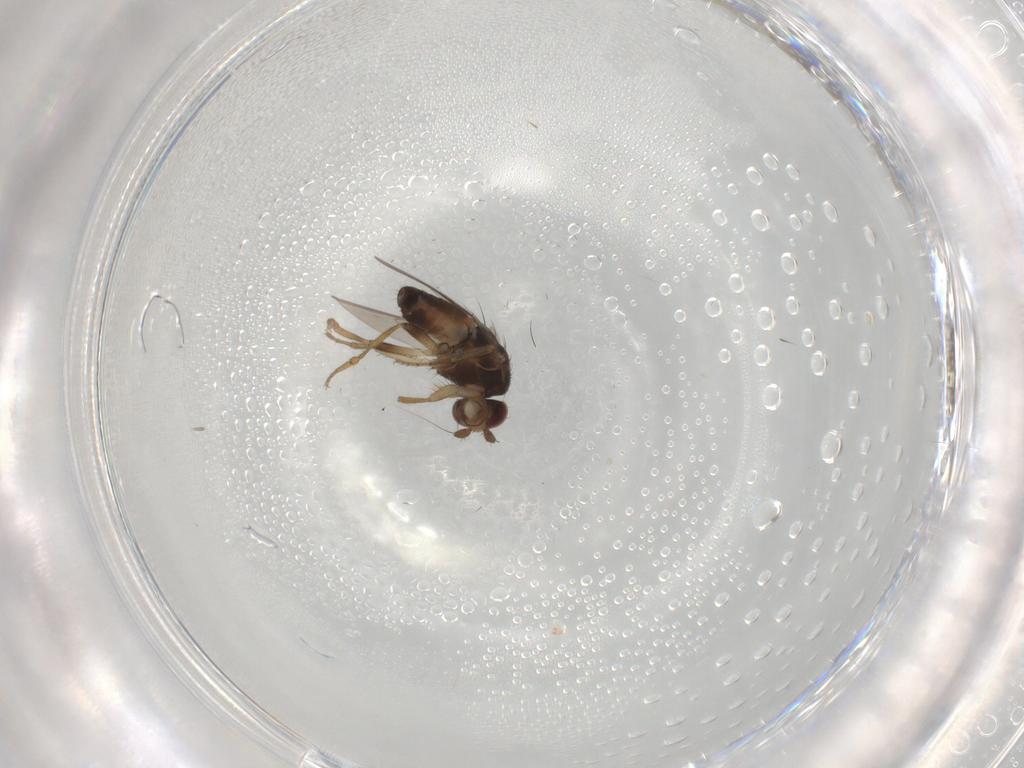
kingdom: Animalia
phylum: Arthropoda
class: Insecta
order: Diptera
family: Sphaeroceridae
